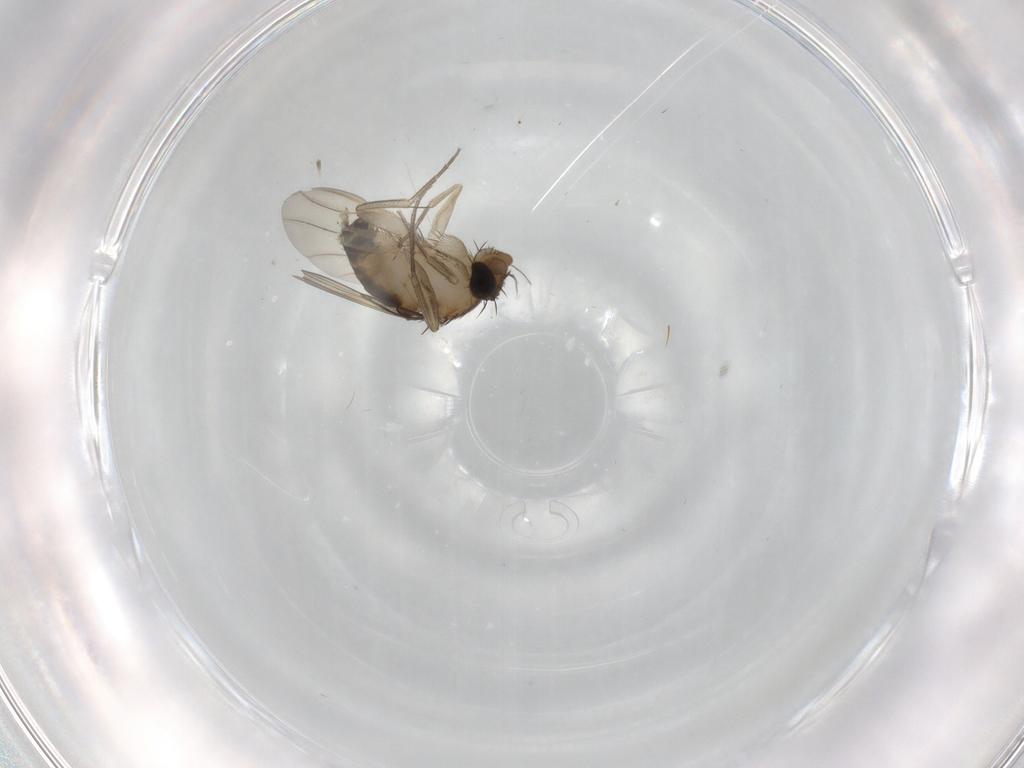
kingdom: Animalia
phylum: Arthropoda
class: Insecta
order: Diptera
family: Phoridae
